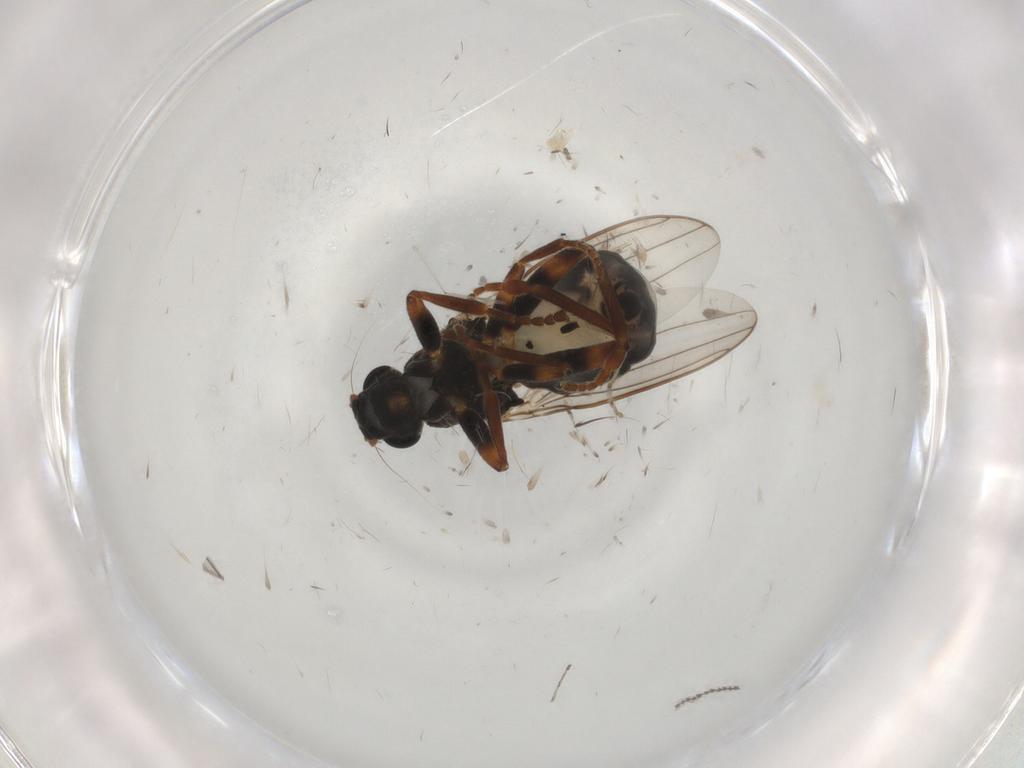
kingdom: Animalia
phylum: Arthropoda
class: Insecta
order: Diptera
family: Sphaeroceridae
